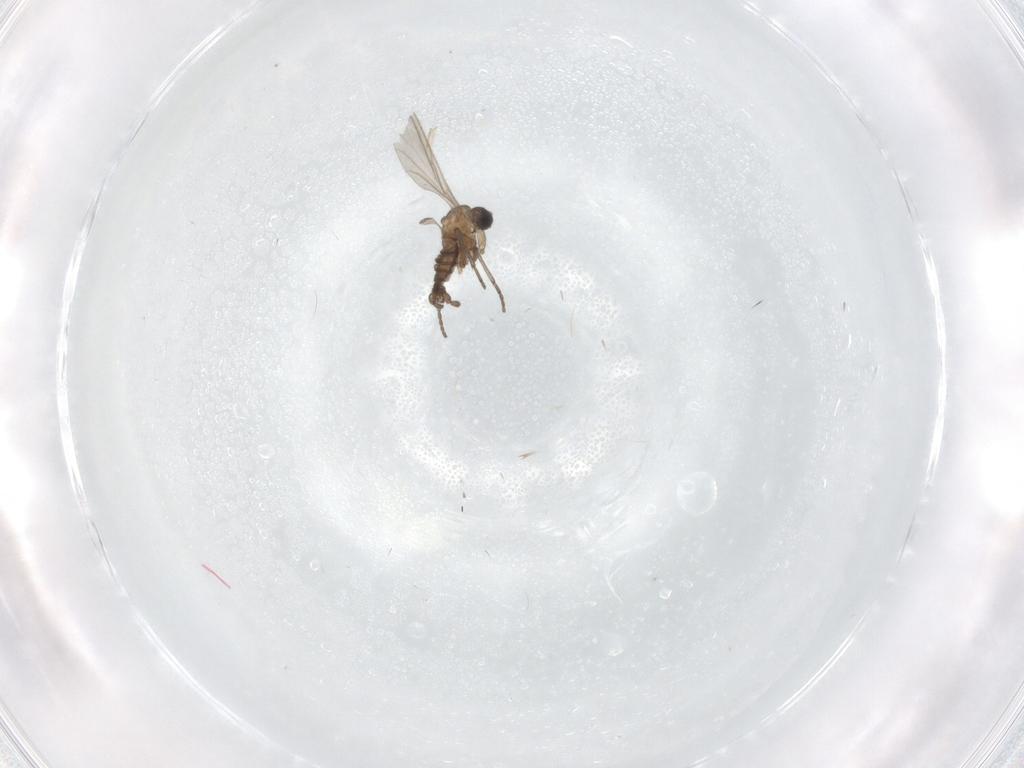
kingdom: Animalia
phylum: Arthropoda
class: Insecta
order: Diptera
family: Sciaridae
